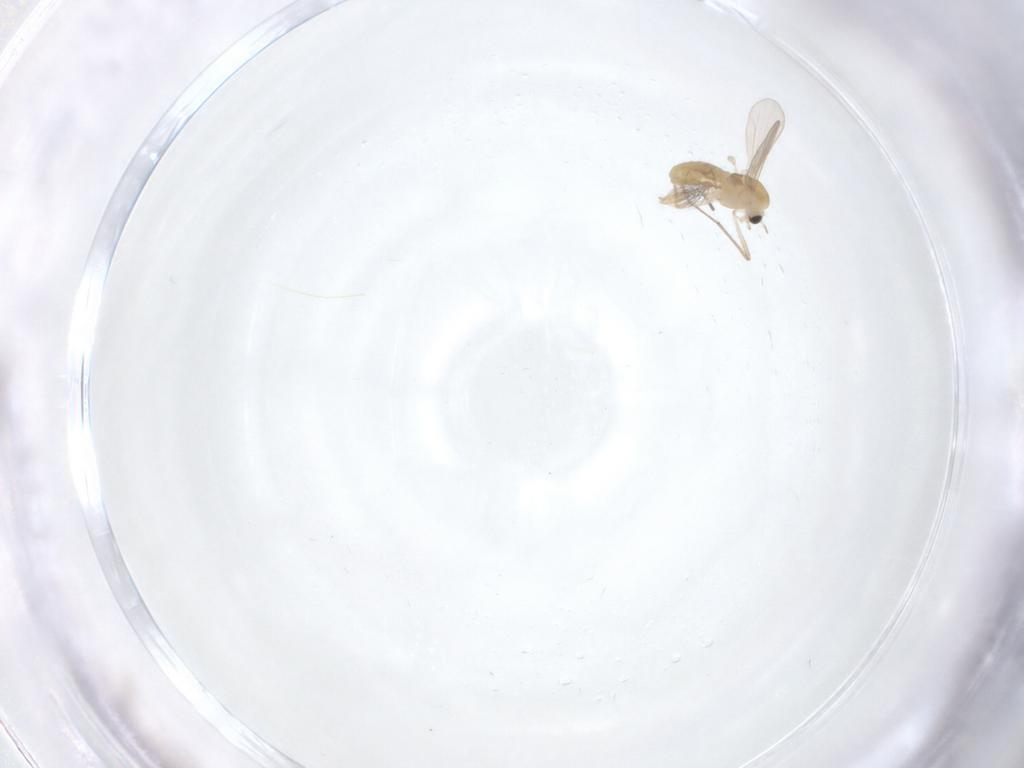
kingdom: Animalia
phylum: Arthropoda
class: Insecta
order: Diptera
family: Ceratopogonidae
